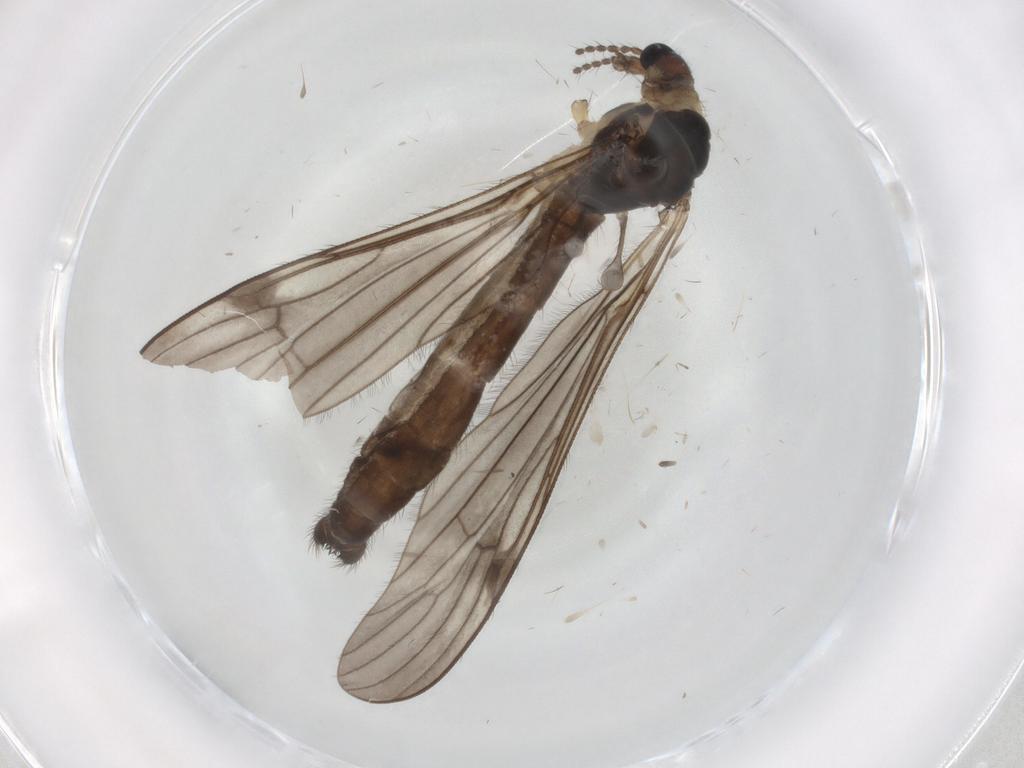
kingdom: Animalia
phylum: Arthropoda
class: Insecta
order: Diptera
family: Limoniidae
